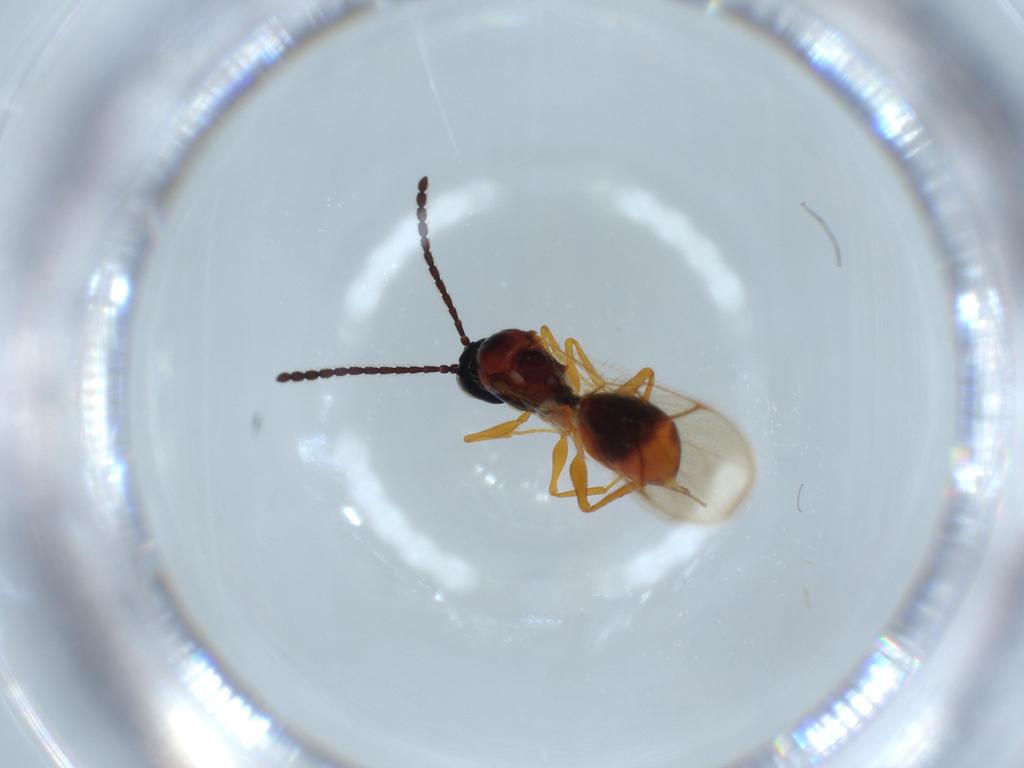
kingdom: Animalia
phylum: Arthropoda
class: Insecta
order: Hymenoptera
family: Figitidae
